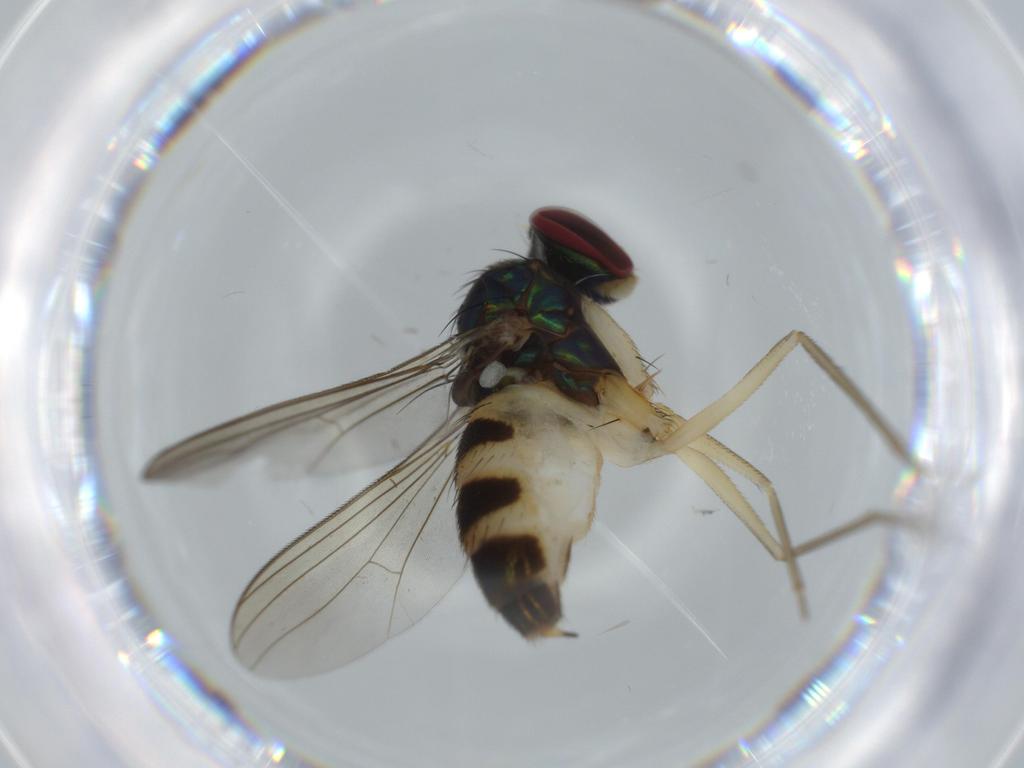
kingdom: Animalia
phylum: Arthropoda
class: Insecta
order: Diptera
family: Dolichopodidae
